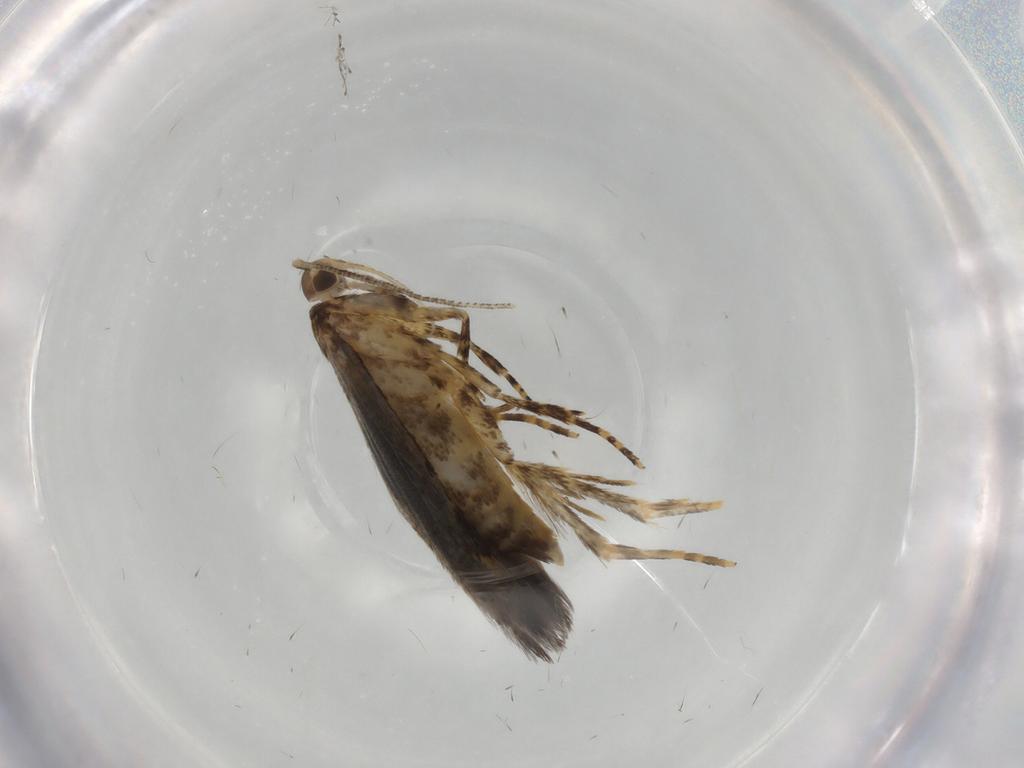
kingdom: Animalia
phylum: Arthropoda
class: Insecta
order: Lepidoptera
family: Oecophoridae
